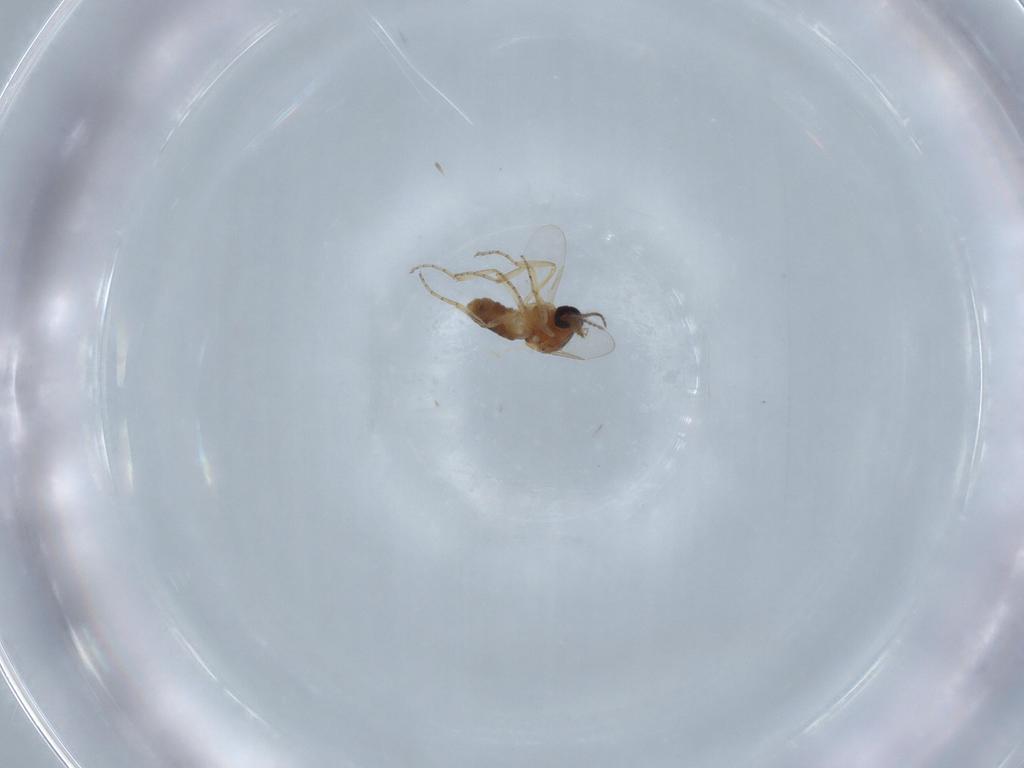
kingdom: Animalia
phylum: Arthropoda
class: Insecta
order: Diptera
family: Ceratopogonidae
